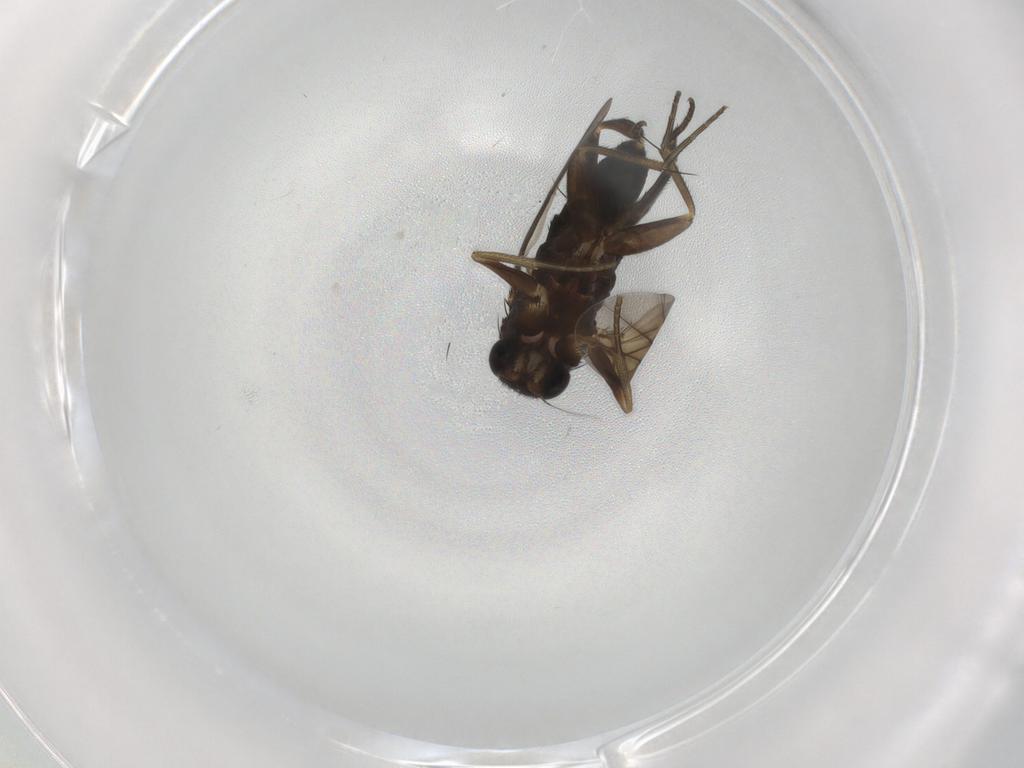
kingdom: Animalia
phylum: Arthropoda
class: Insecta
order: Diptera
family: Phoridae
